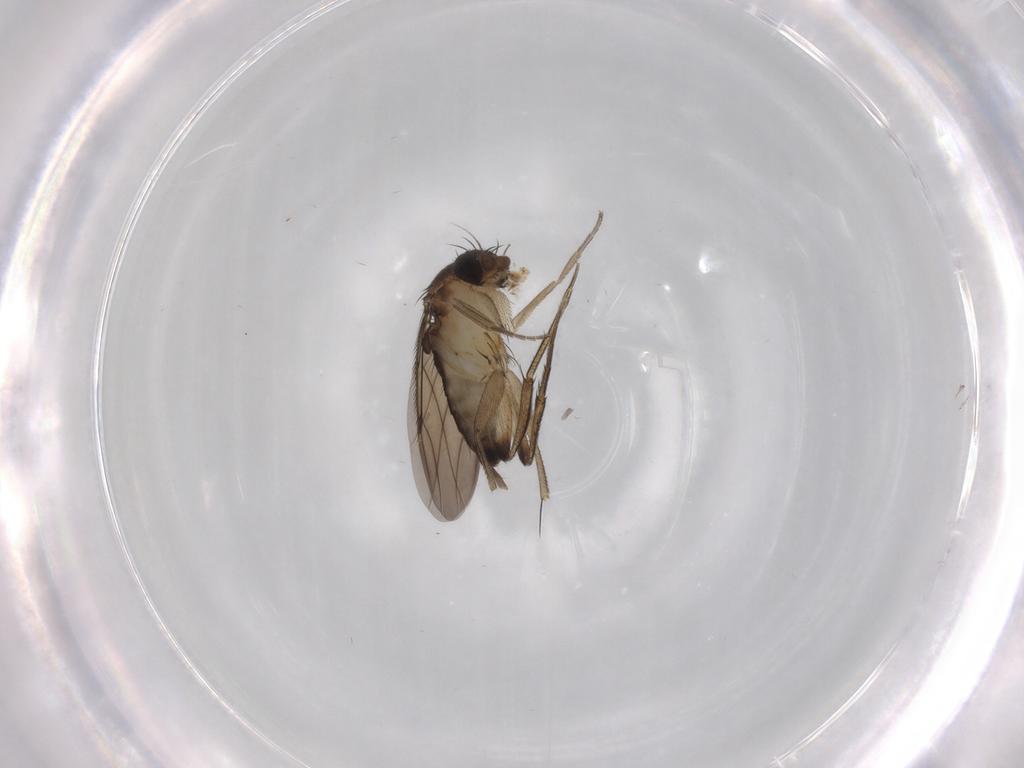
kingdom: Animalia
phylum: Arthropoda
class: Insecta
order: Diptera
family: Phoridae
